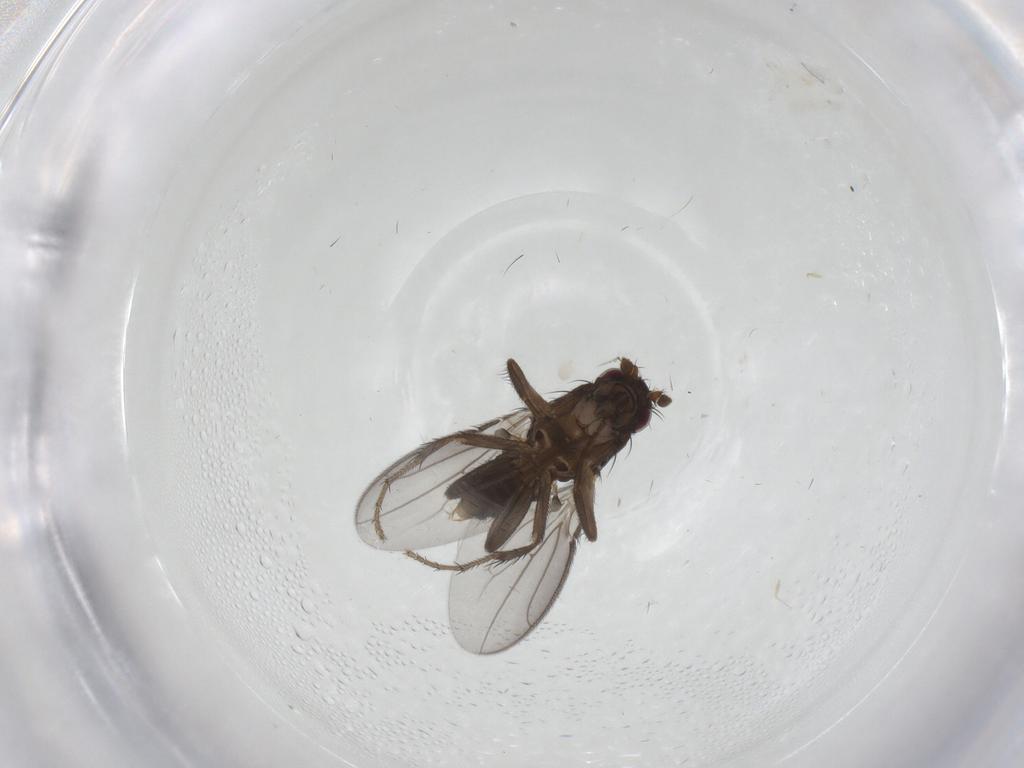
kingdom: Animalia
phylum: Arthropoda
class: Insecta
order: Diptera
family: Sphaeroceridae
